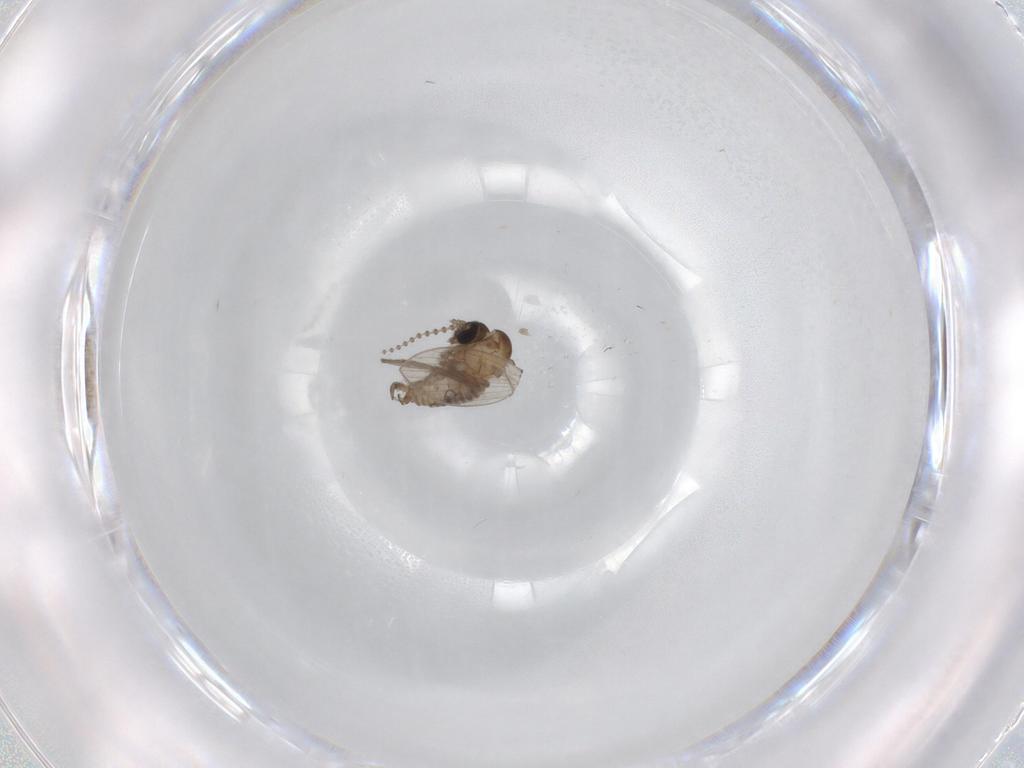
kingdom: Animalia
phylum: Arthropoda
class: Insecta
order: Diptera
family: Psychodidae
